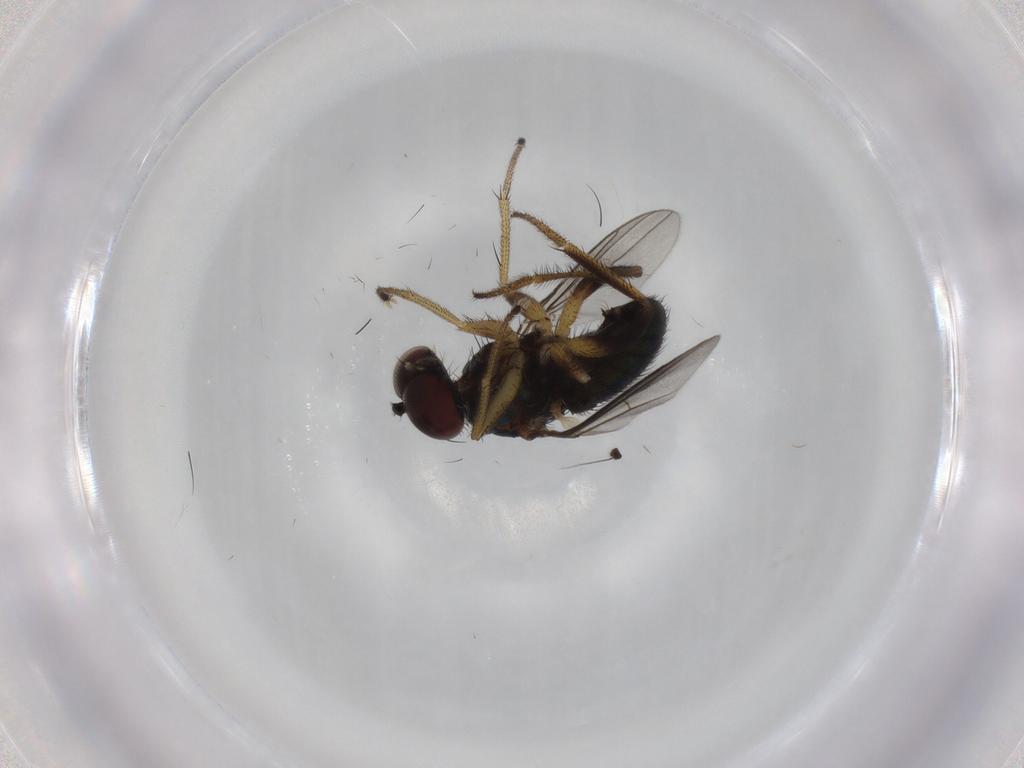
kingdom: Animalia
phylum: Arthropoda
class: Insecta
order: Diptera
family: Dolichopodidae
